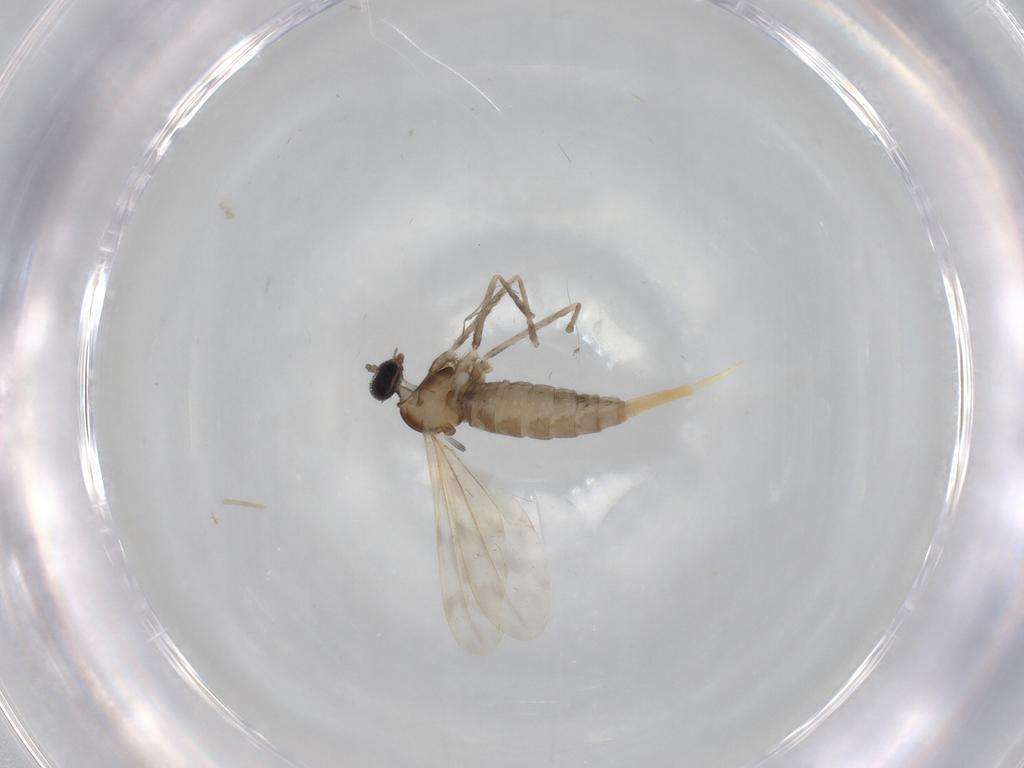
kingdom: Animalia
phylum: Arthropoda
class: Insecta
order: Diptera
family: Cecidomyiidae
